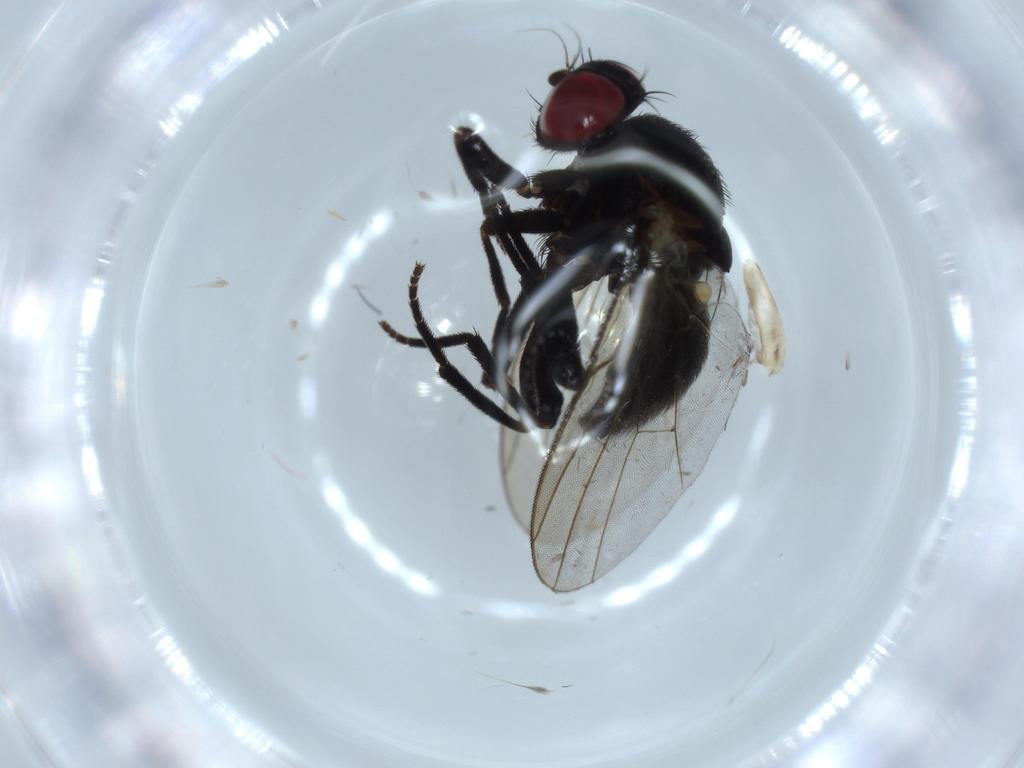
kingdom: Animalia
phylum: Arthropoda
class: Insecta
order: Diptera
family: Agromyzidae
